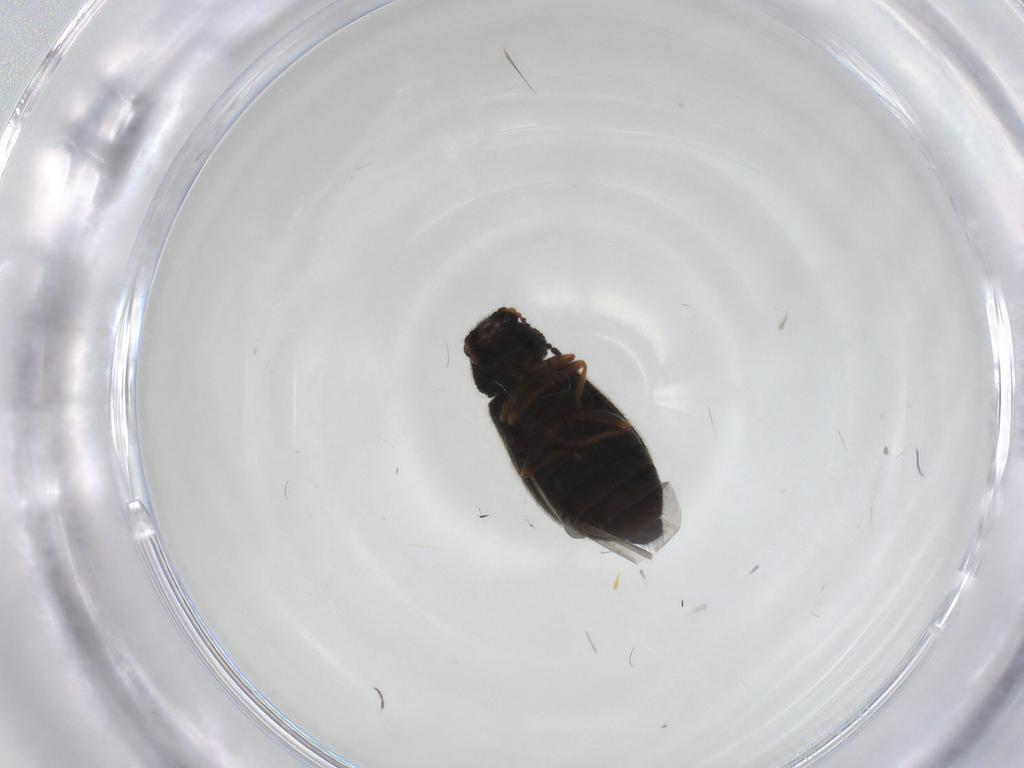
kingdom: Animalia
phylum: Arthropoda
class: Insecta
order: Coleoptera
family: Melyridae
